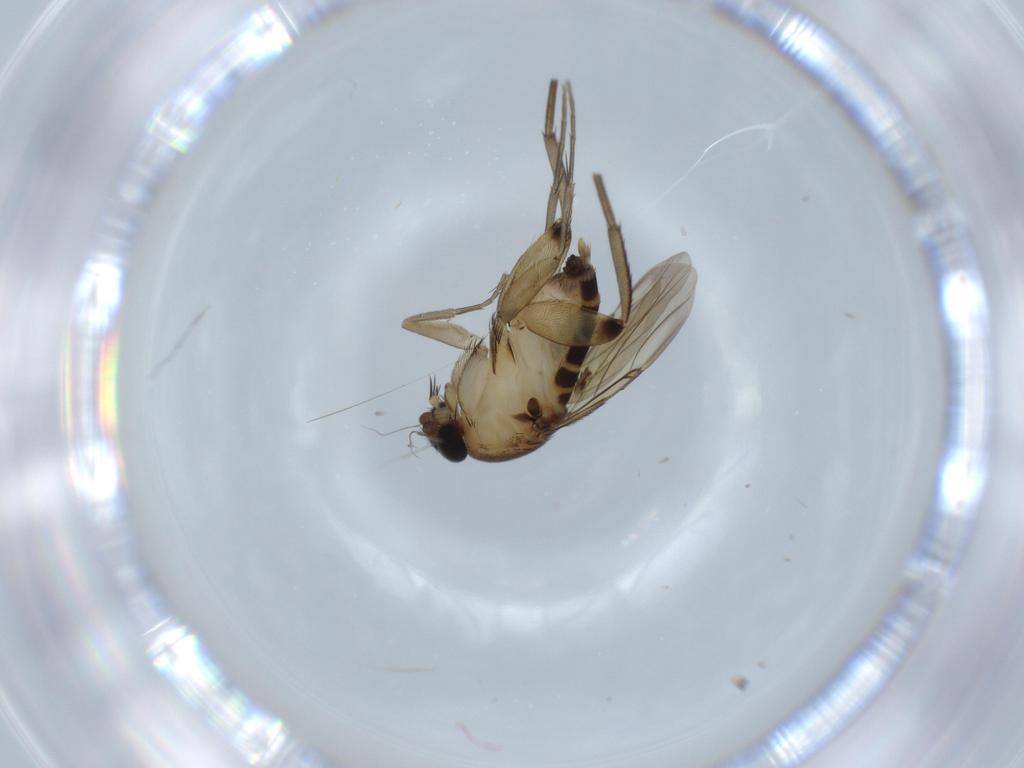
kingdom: Animalia
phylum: Arthropoda
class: Insecta
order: Diptera
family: Phoridae
